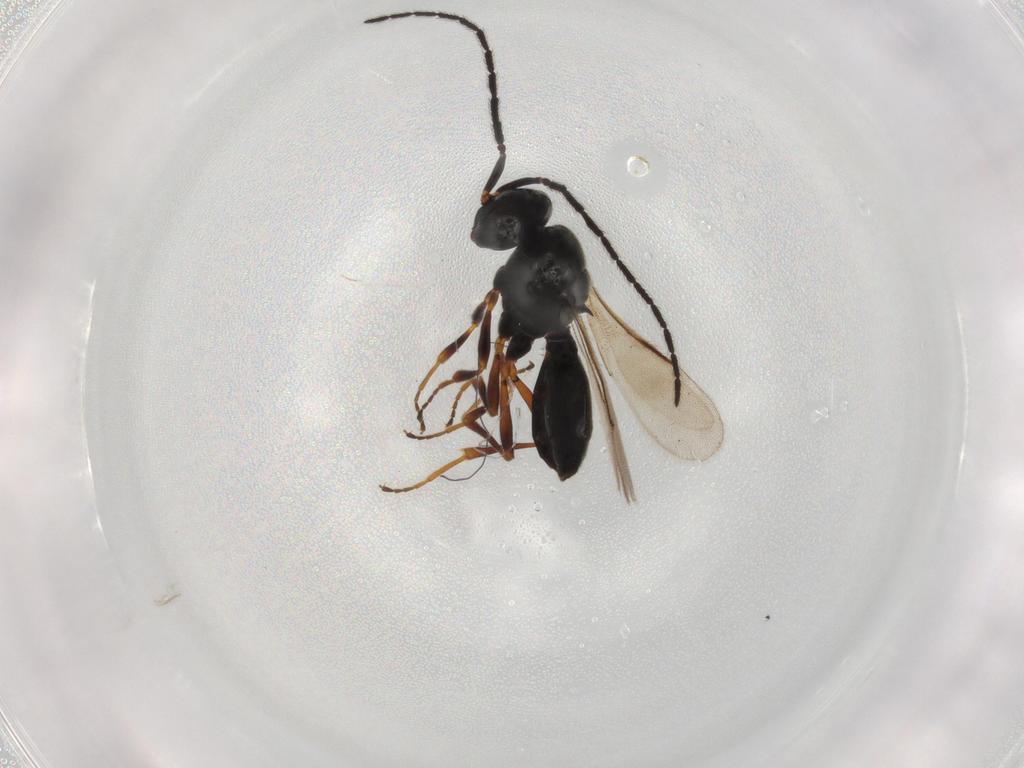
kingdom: Animalia
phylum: Arthropoda
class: Insecta
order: Hymenoptera
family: Scelionidae
